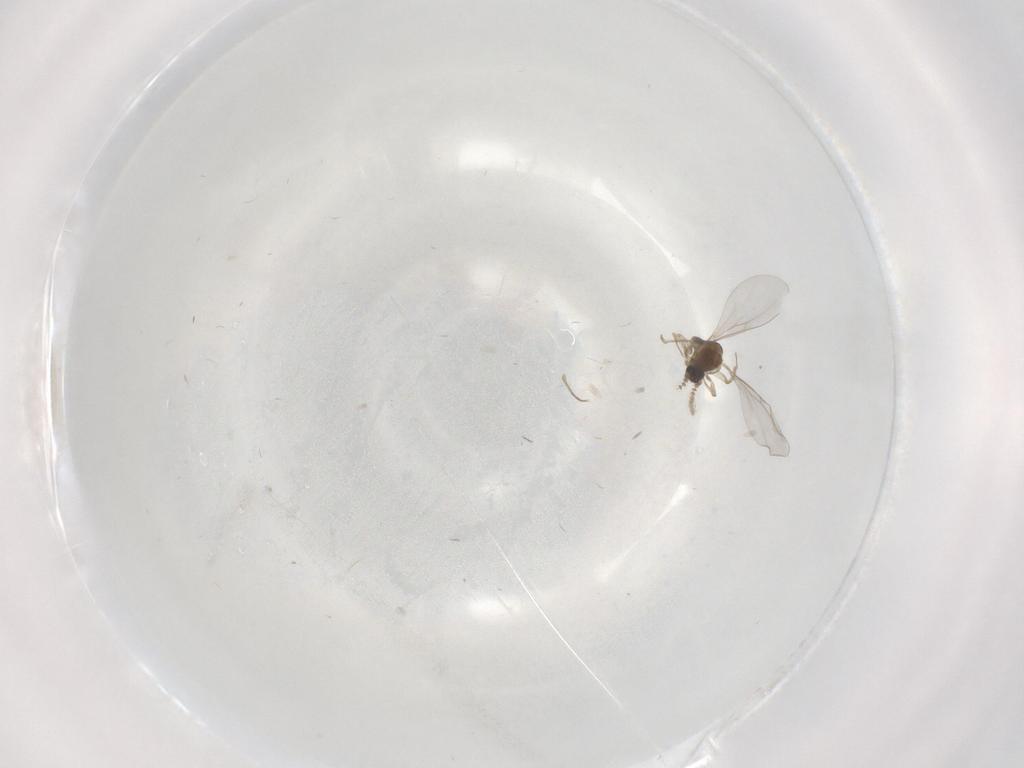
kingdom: Animalia
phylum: Arthropoda
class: Insecta
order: Diptera
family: Cecidomyiidae
